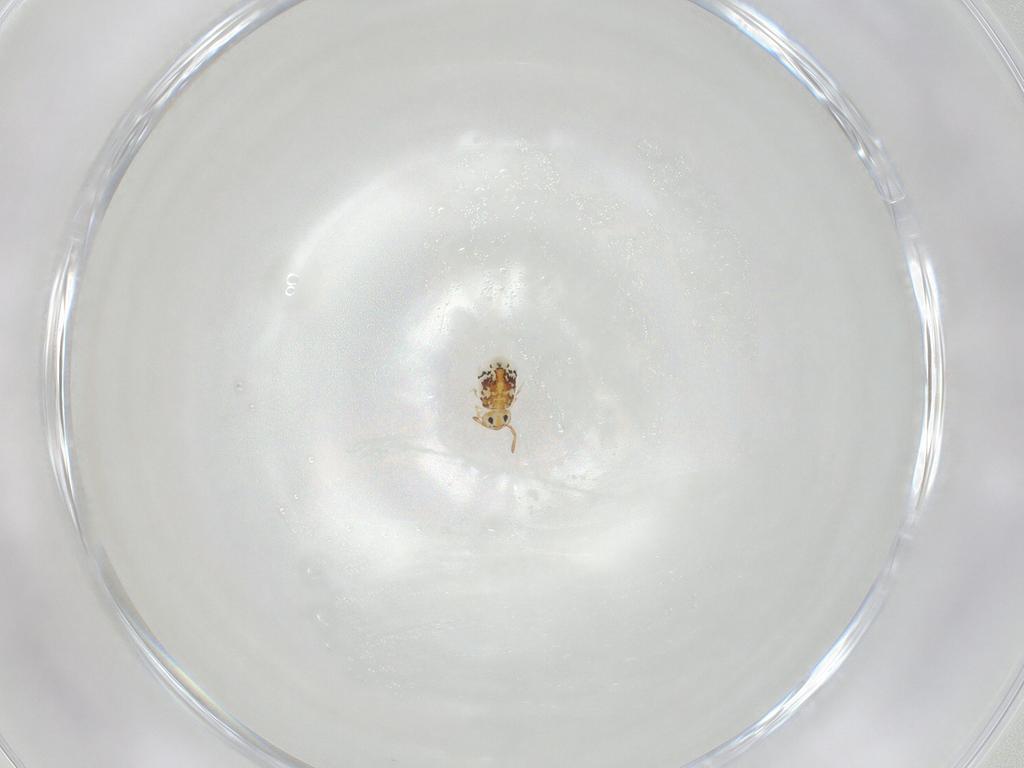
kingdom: Animalia
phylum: Arthropoda
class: Collembola
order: Symphypleona
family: Bourletiellidae
